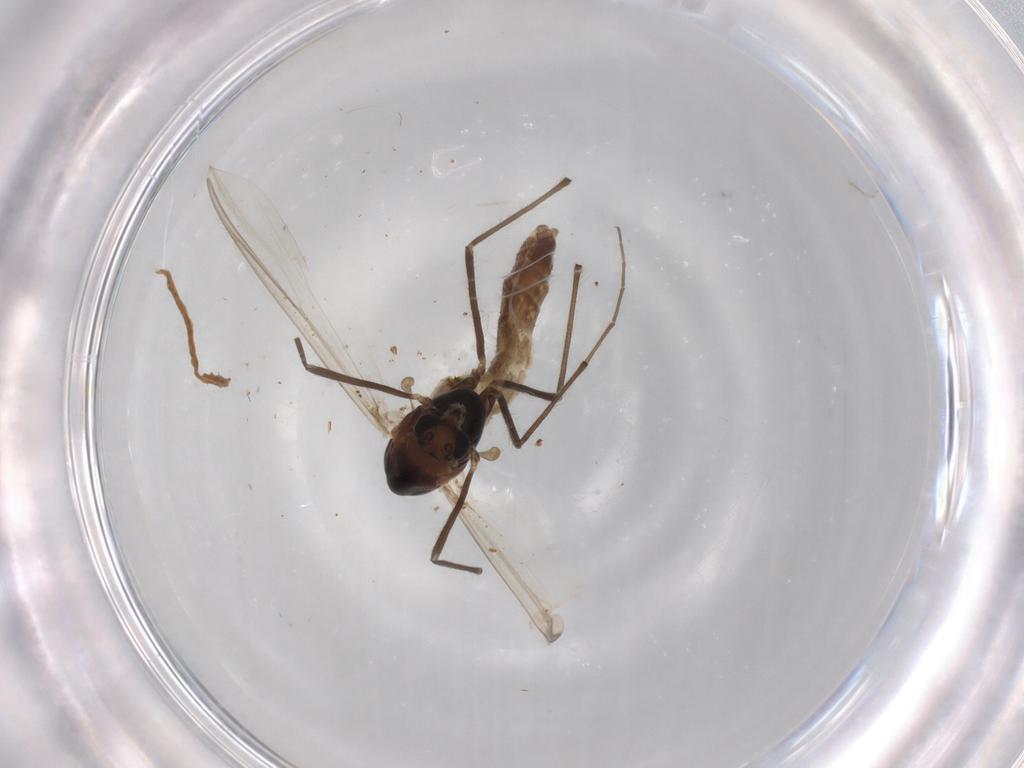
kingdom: Animalia
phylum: Arthropoda
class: Insecta
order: Diptera
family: Chironomidae
